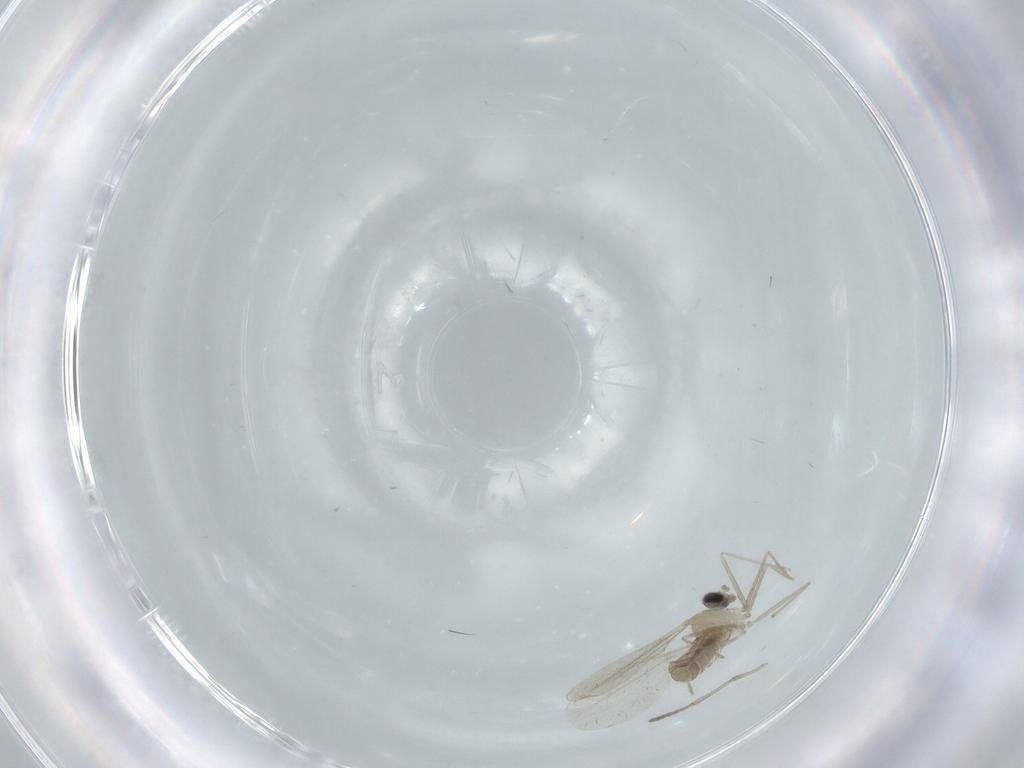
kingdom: Animalia
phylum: Arthropoda
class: Insecta
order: Diptera
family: Cecidomyiidae
